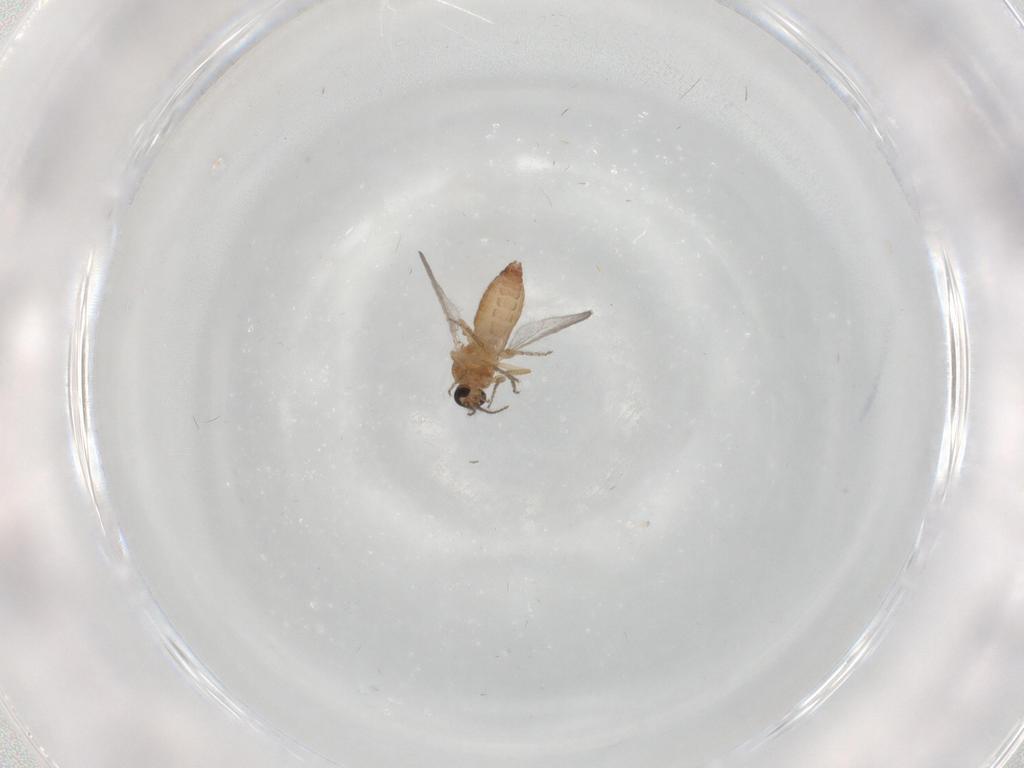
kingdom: Animalia
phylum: Arthropoda
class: Insecta
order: Diptera
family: Ceratopogonidae
